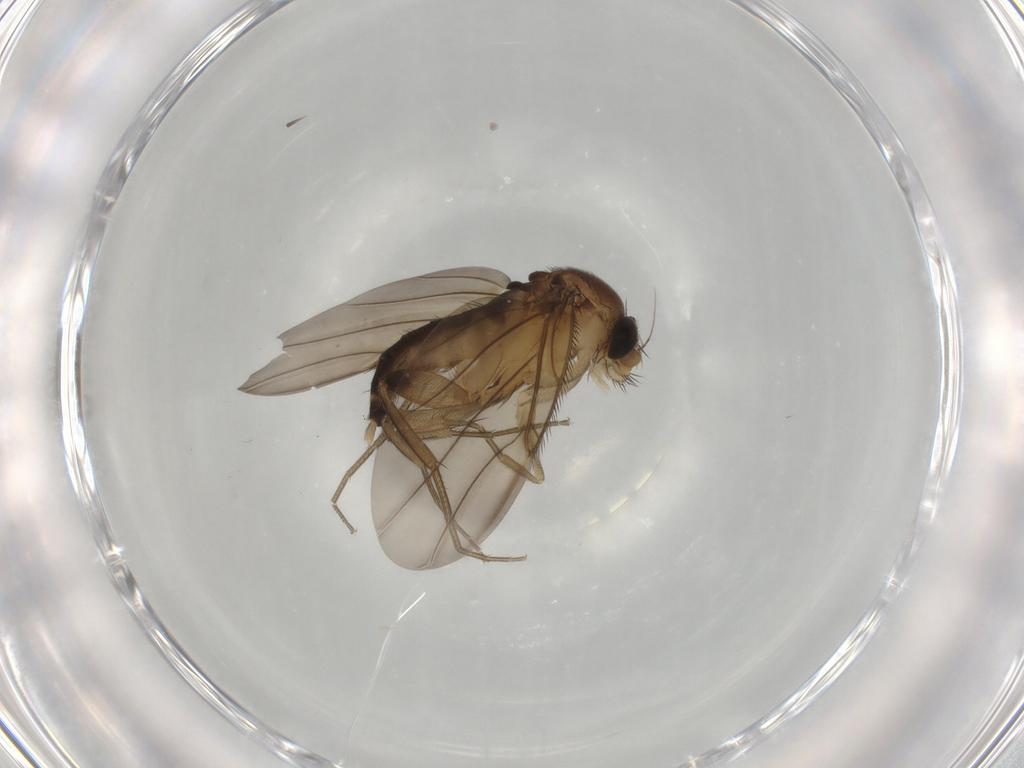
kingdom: Animalia
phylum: Arthropoda
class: Insecta
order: Diptera
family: Phoridae
